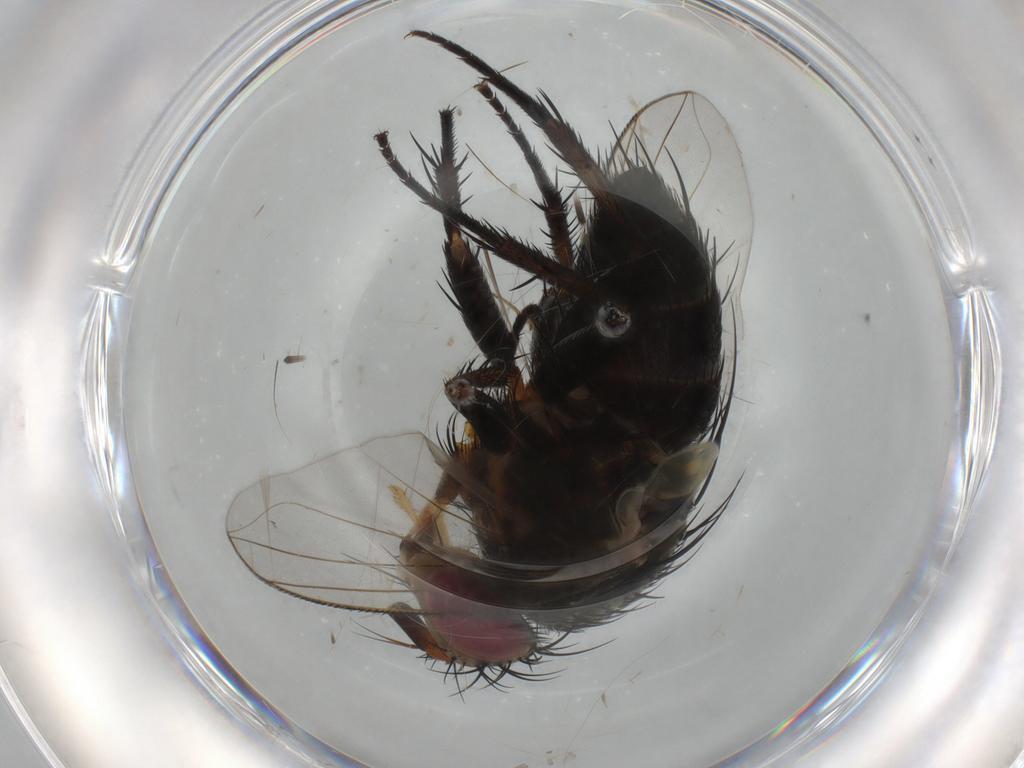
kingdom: Animalia
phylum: Arthropoda
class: Insecta
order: Diptera
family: Muscidae
